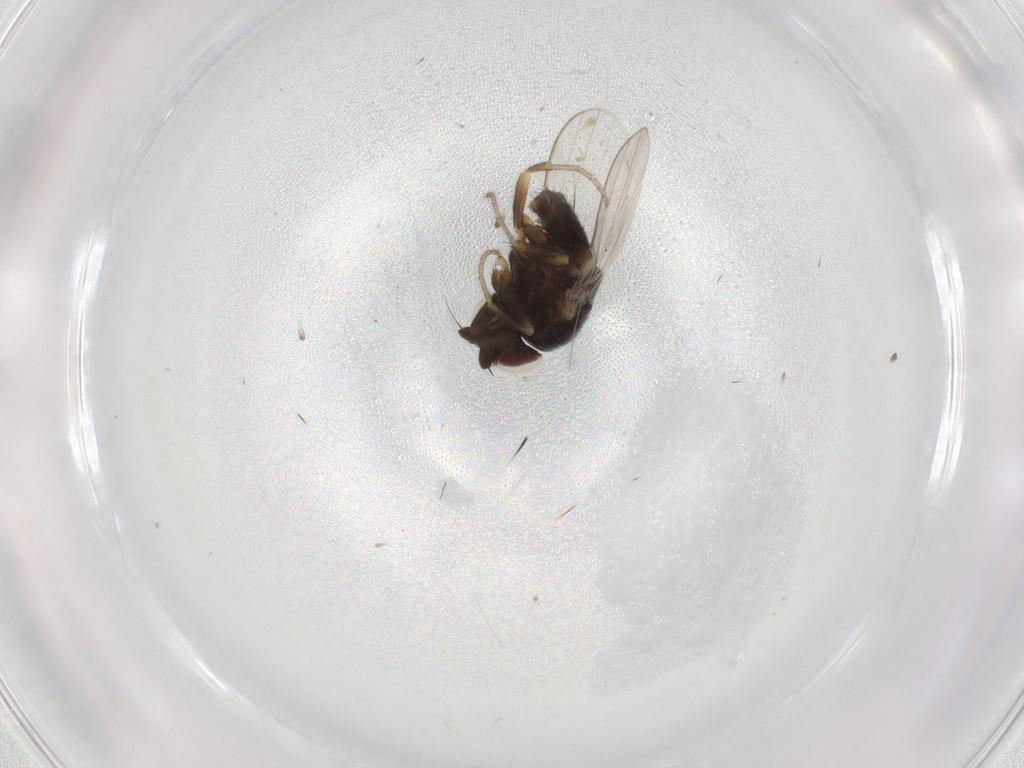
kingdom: Animalia
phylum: Arthropoda
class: Insecta
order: Diptera
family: Milichiidae
